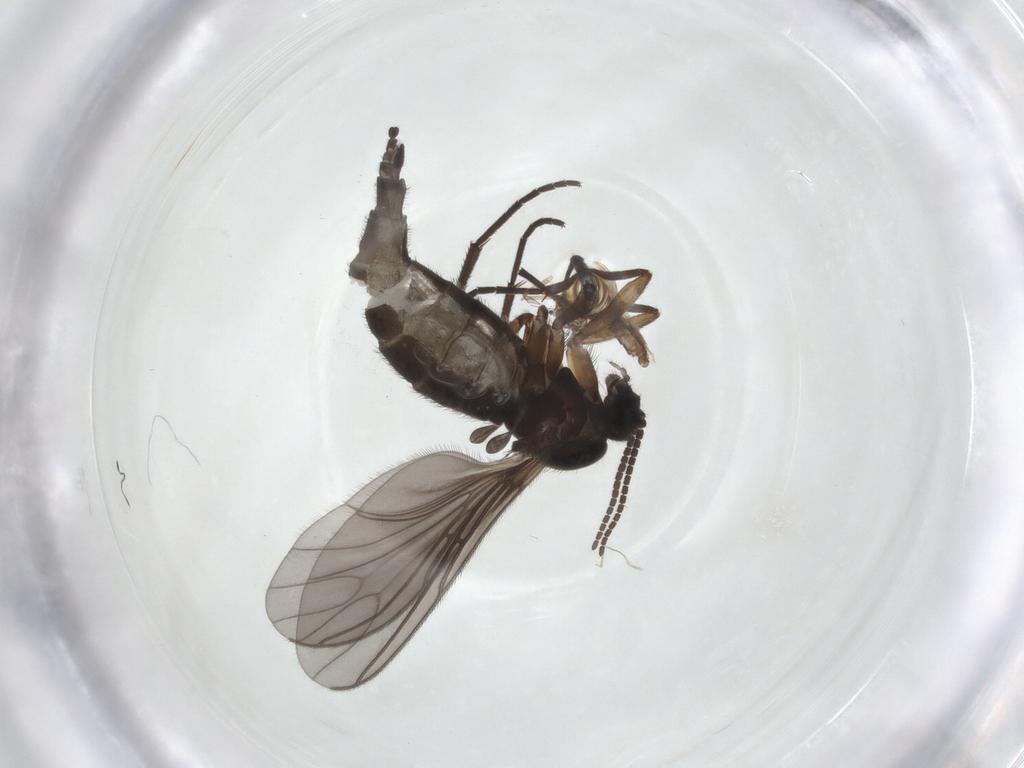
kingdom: Animalia
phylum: Arthropoda
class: Insecta
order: Diptera
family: Sciaridae
